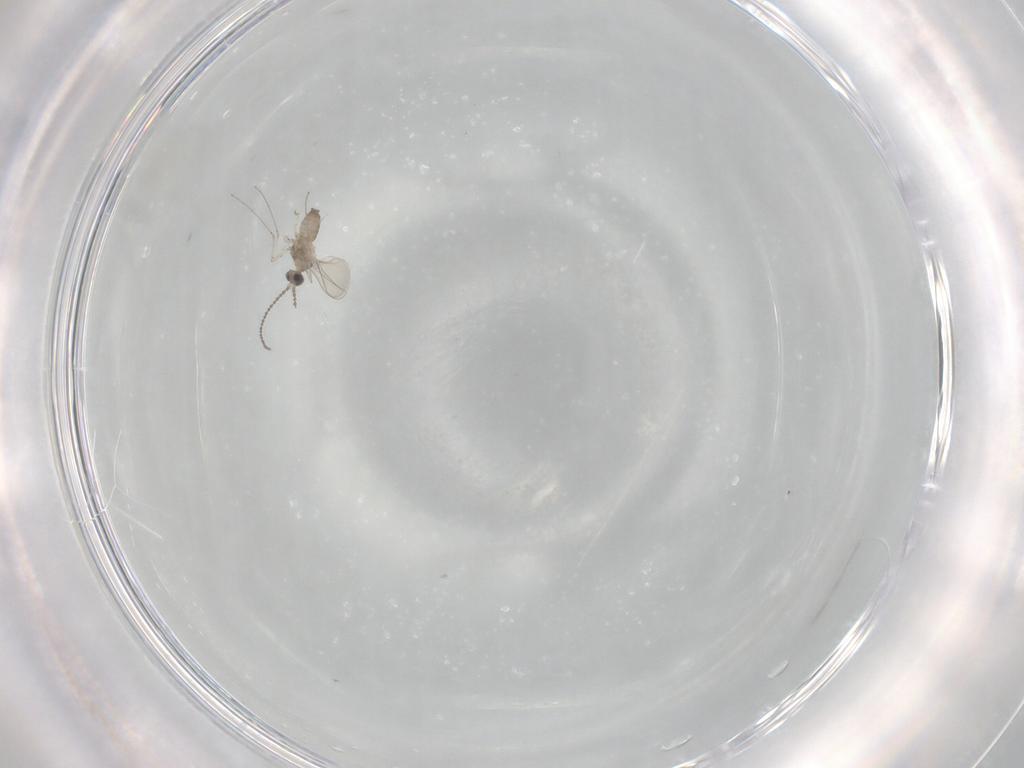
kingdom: Animalia
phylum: Arthropoda
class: Insecta
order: Diptera
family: Cecidomyiidae
